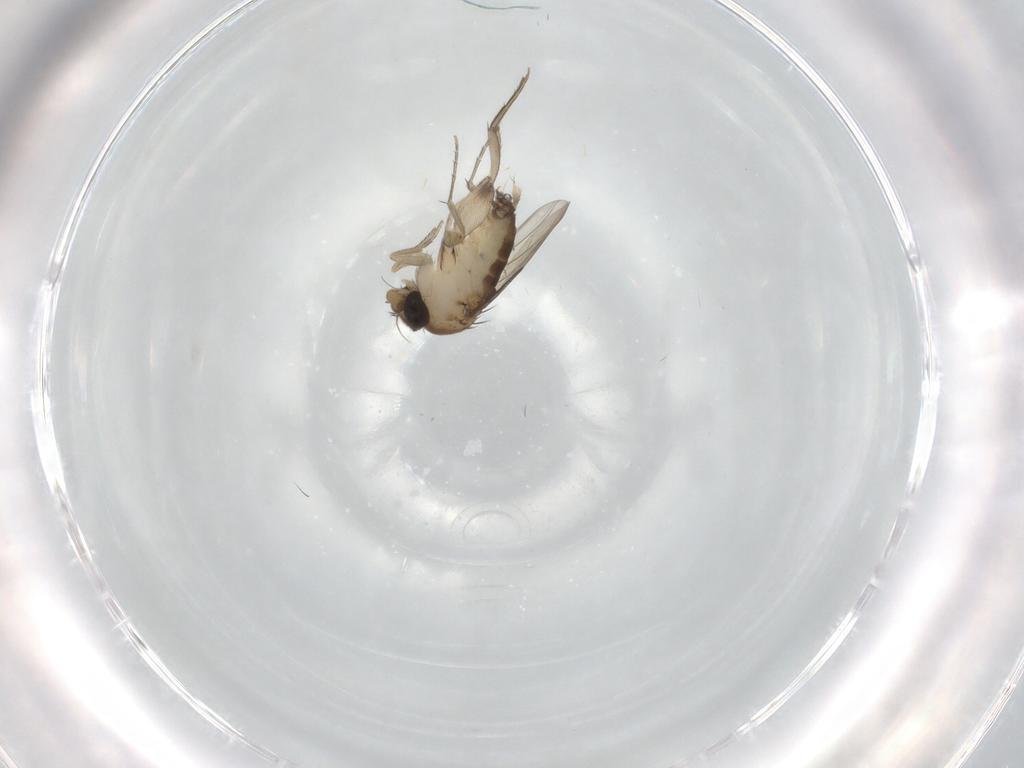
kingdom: Animalia
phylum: Arthropoda
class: Insecta
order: Diptera
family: Phoridae
